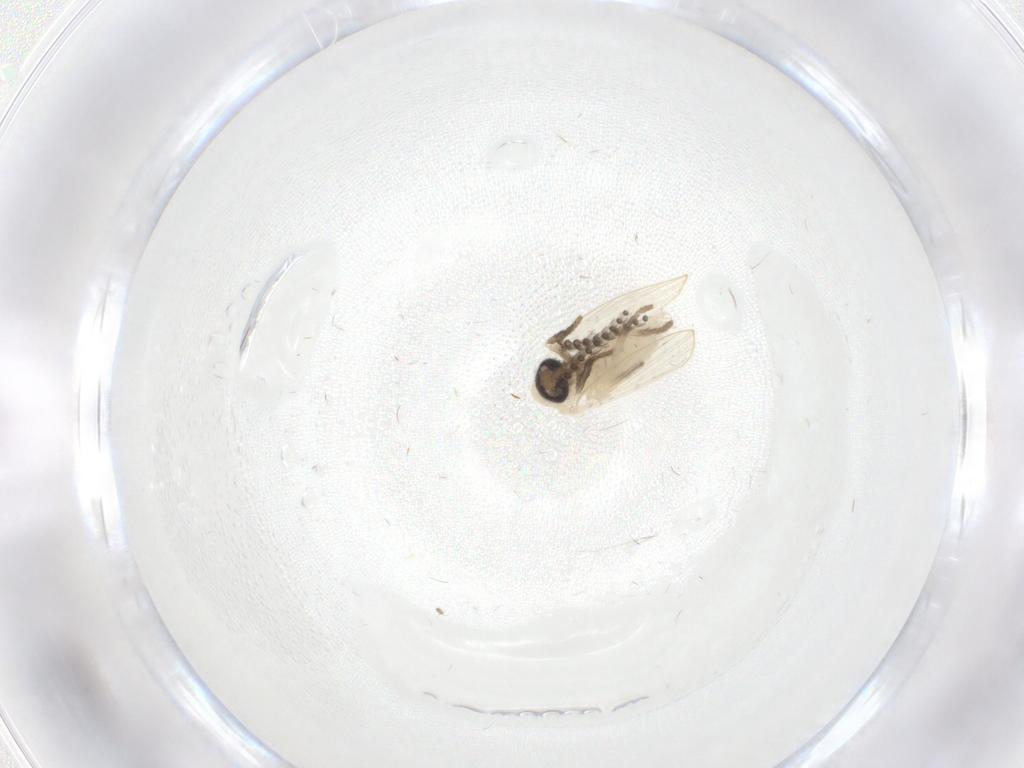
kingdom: Animalia
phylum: Arthropoda
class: Insecta
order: Diptera
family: Psychodidae
